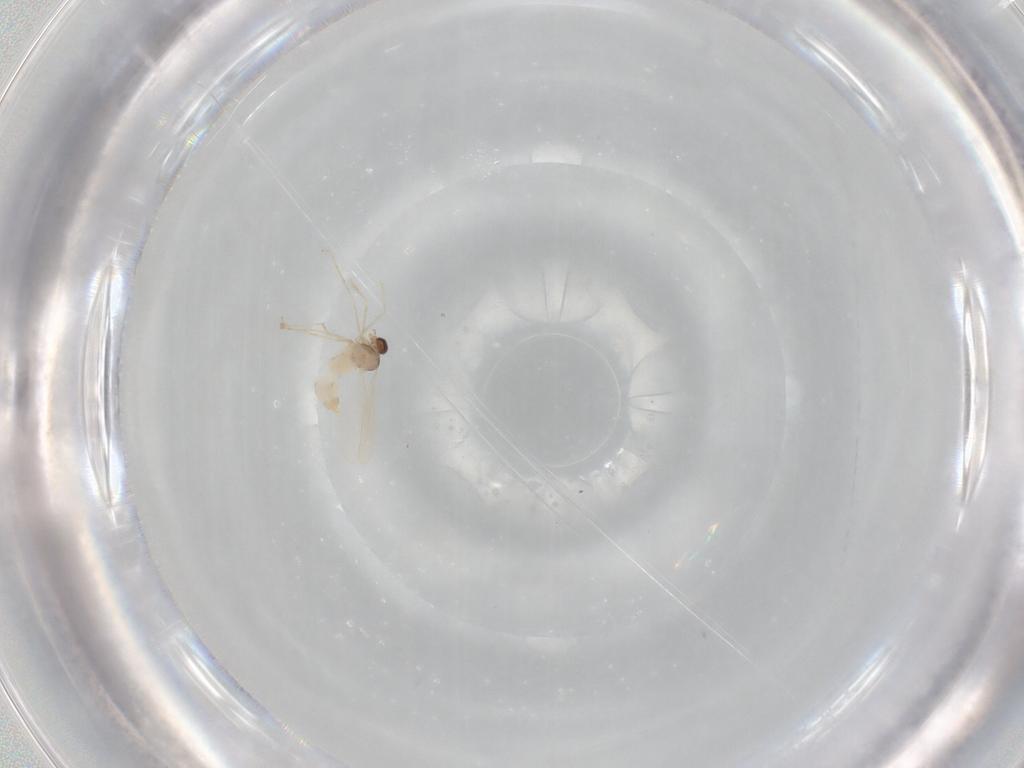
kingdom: Animalia
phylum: Arthropoda
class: Insecta
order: Diptera
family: Cecidomyiidae
